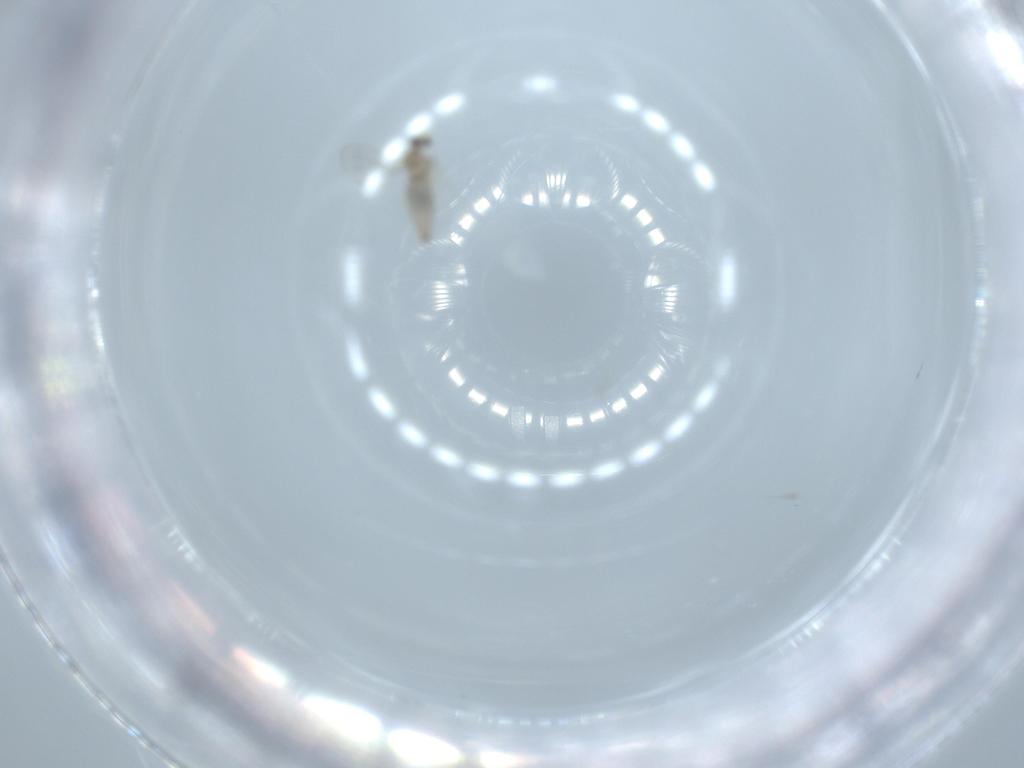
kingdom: Animalia
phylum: Arthropoda
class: Insecta
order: Diptera
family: Cecidomyiidae
